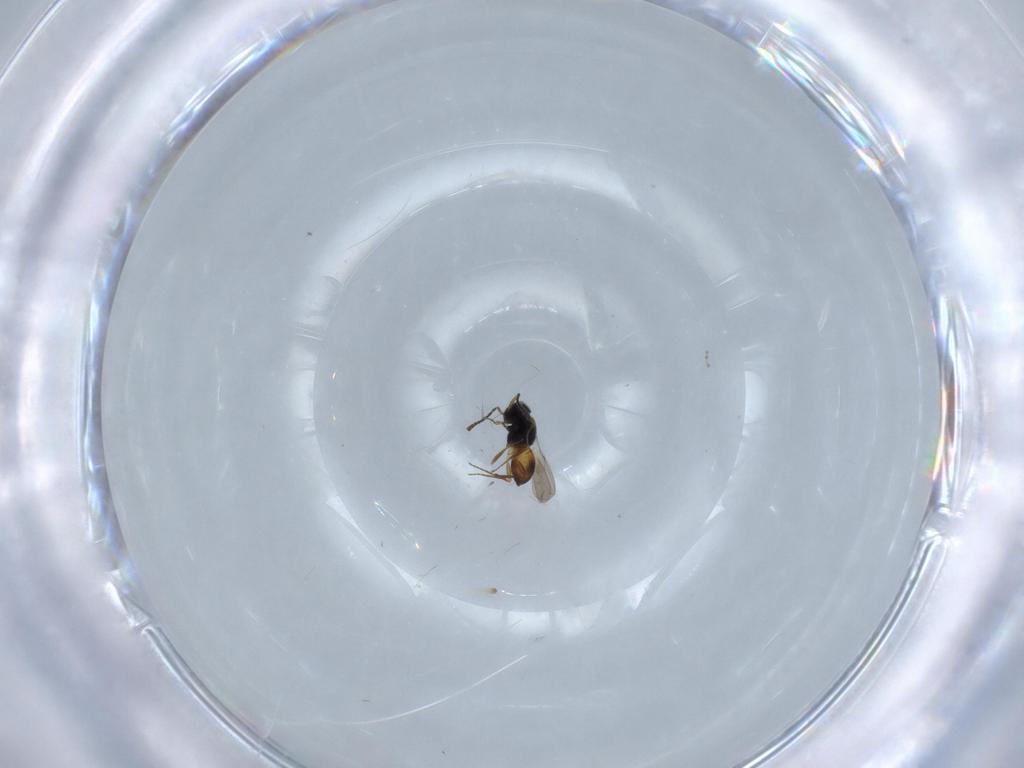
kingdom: Animalia
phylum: Arthropoda
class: Insecta
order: Hymenoptera
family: Scelionidae
